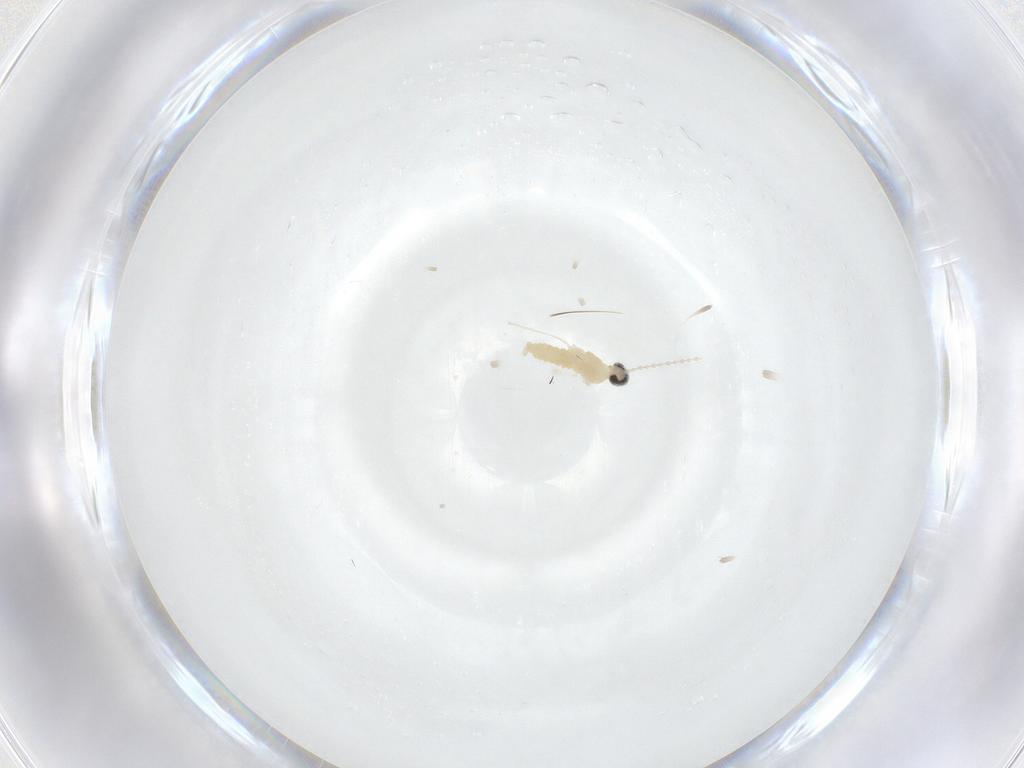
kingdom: Animalia
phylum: Arthropoda
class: Insecta
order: Diptera
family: Cecidomyiidae
